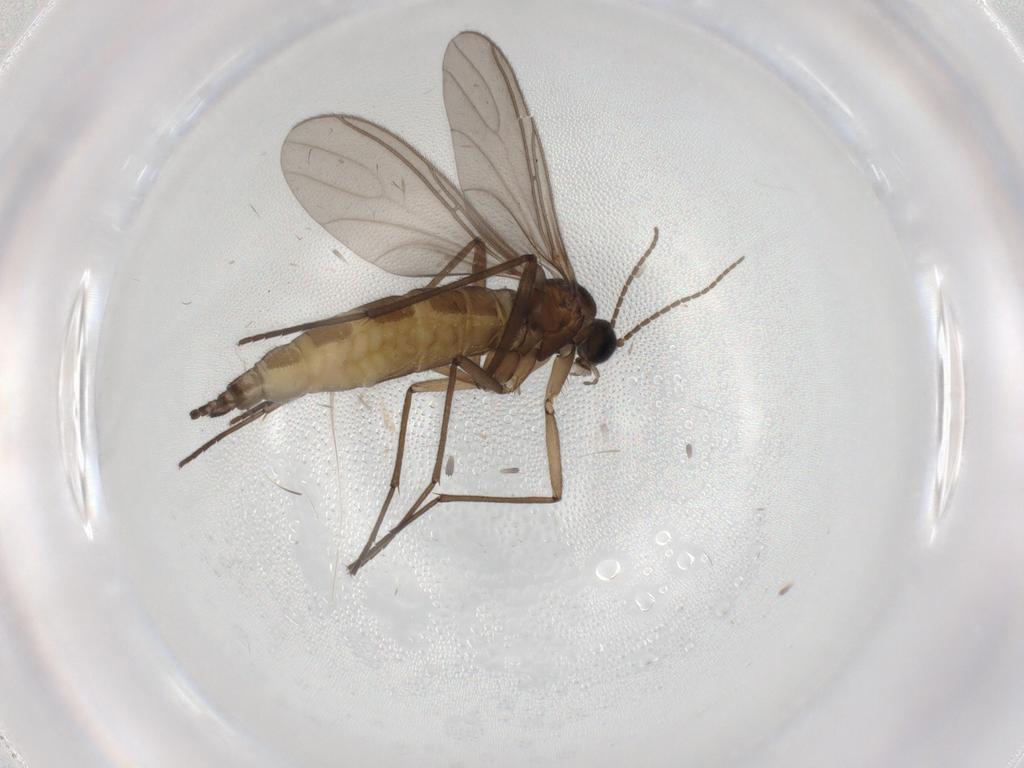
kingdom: Animalia
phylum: Arthropoda
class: Insecta
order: Diptera
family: Sciaridae
